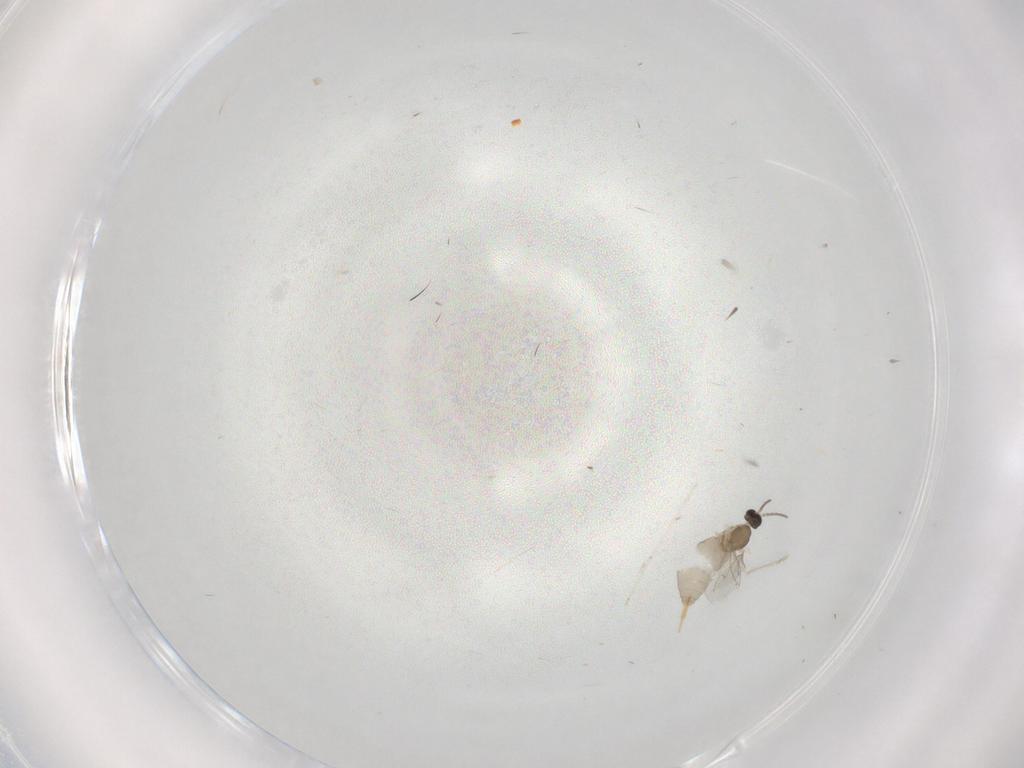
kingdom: Animalia
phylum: Arthropoda
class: Insecta
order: Diptera
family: Cecidomyiidae
